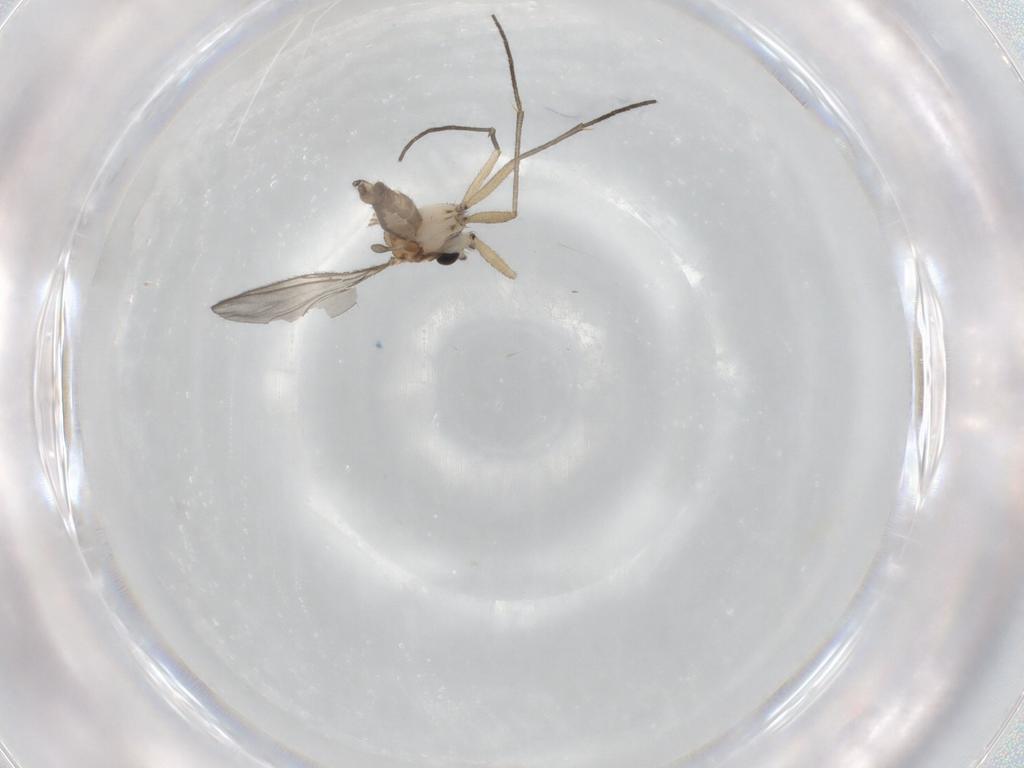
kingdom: Animalia
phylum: Arthropoda
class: Insecta
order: Diptera
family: Sciaridae
